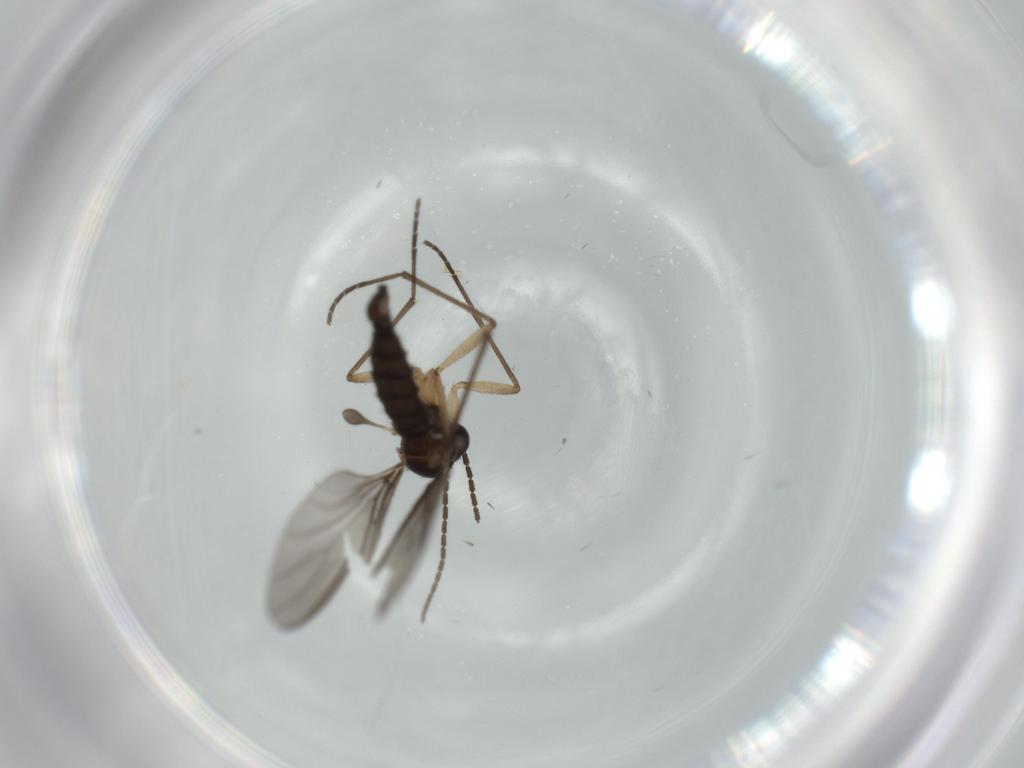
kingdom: Animalia
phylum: Arthropoda
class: Insecta
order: Diptera
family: Sciaridae
